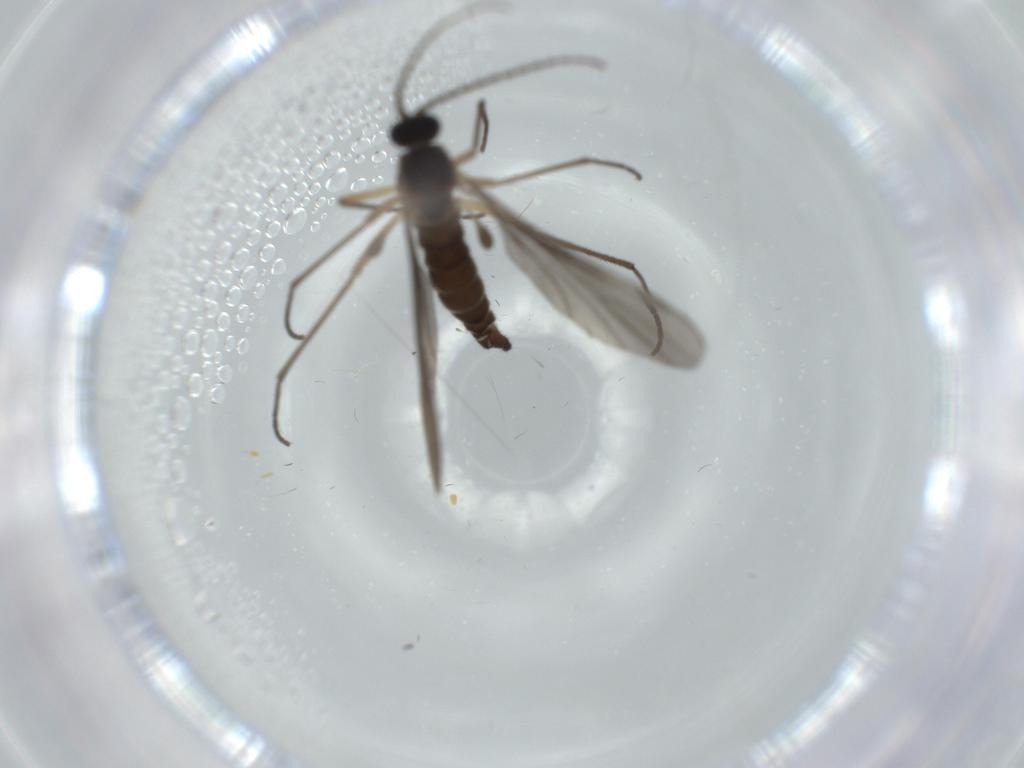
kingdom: Animalia
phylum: Arthropoda
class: Insecta
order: Diptera
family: Sciaridae
